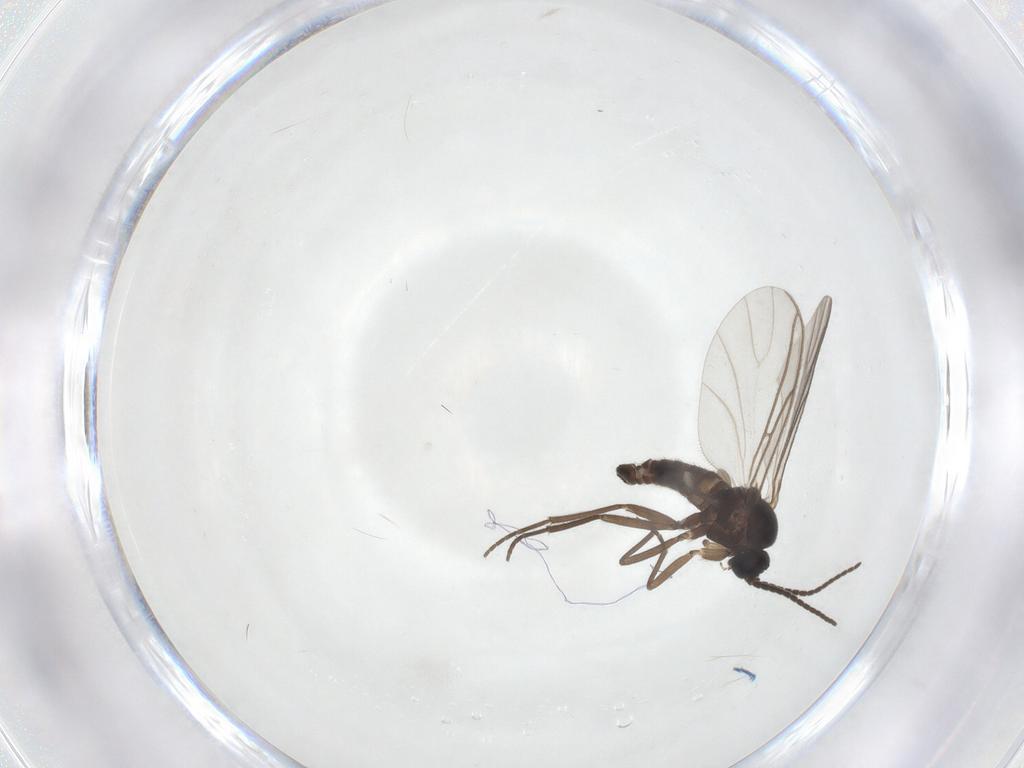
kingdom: Animalia
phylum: Arthropoda
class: Insecta
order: Diptera
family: Sciaridae
